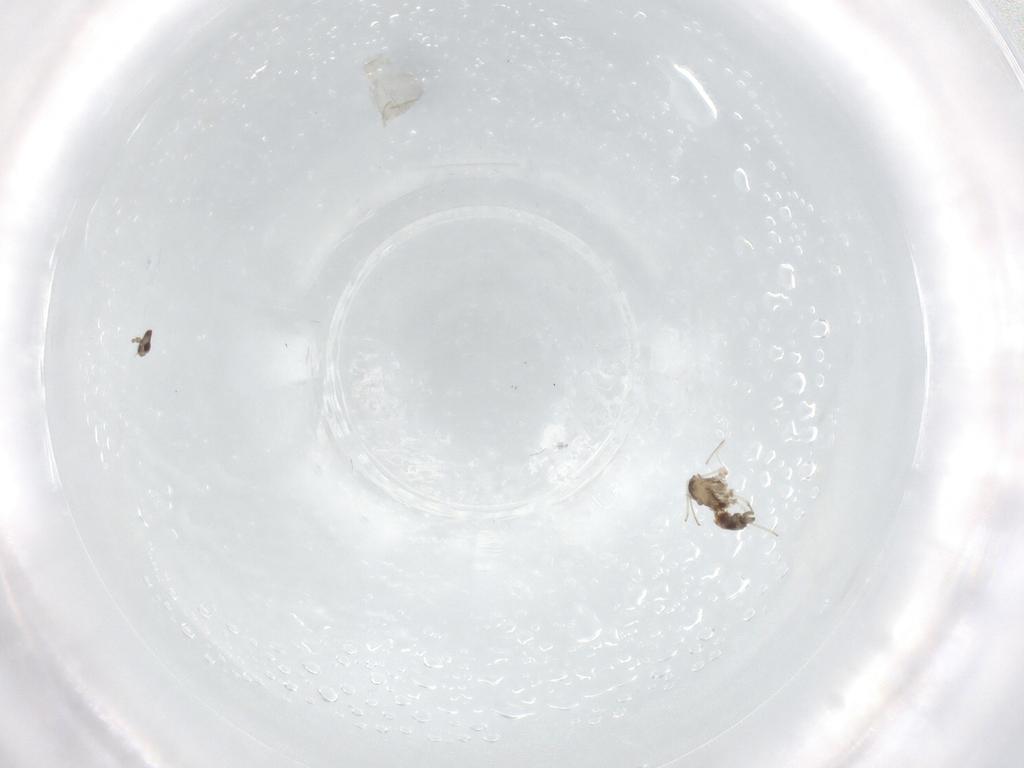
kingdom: Animalia
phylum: Arthropoda
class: Insecta
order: Diptera
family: Cecidomyiidae
